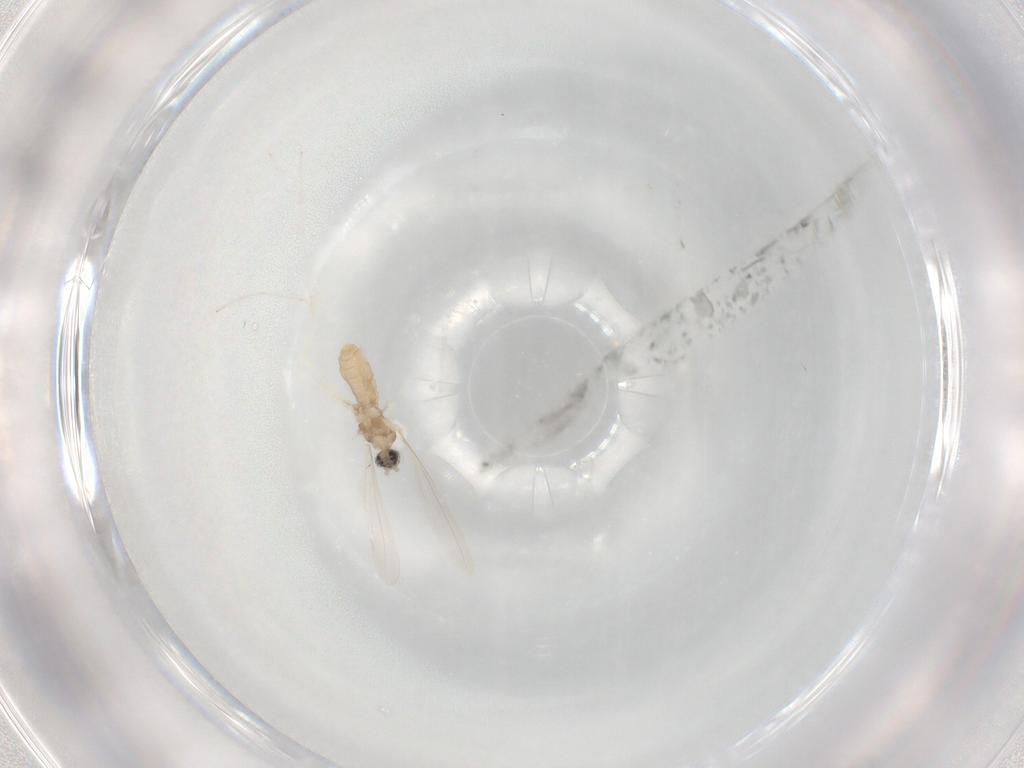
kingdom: Animalia
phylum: Arthropoda
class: Insecta
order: Diptera
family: Cecidomyiidae
